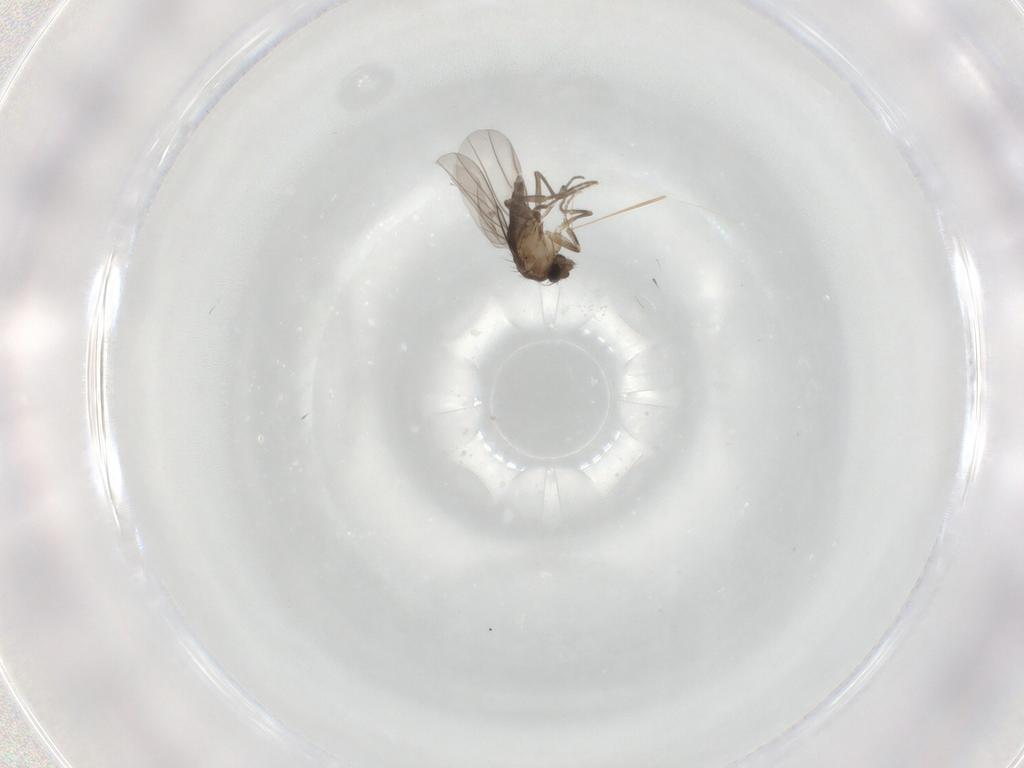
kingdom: Animalia
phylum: Arthropoda
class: Insecta
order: Diptera
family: Phoridae
